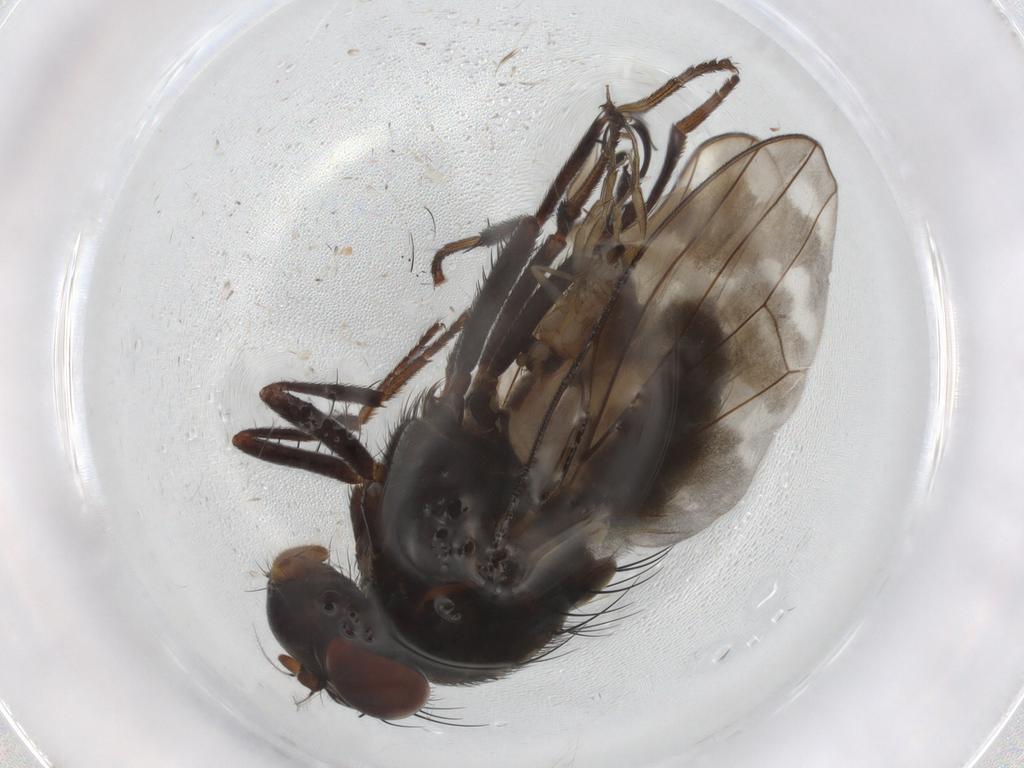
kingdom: Animalia
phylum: Arthropoda
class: Insecta
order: Diptera
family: Phoridae
